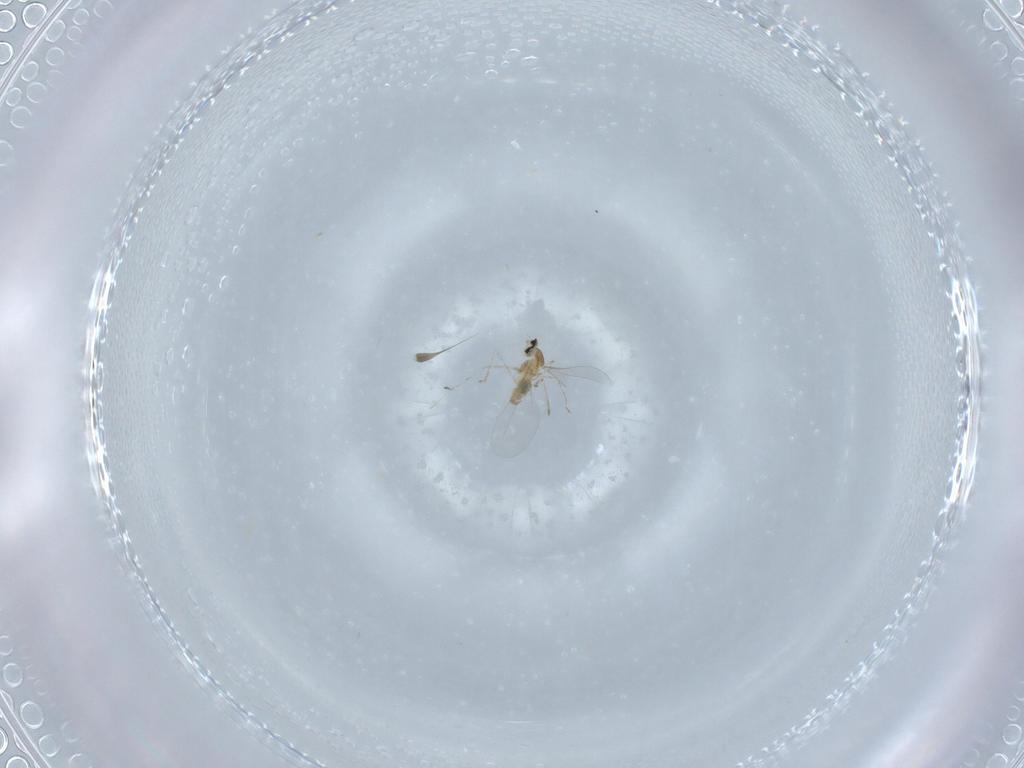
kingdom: Animalia
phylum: Arthropoda
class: Insecta
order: Diptera
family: Cecidomyiidae
